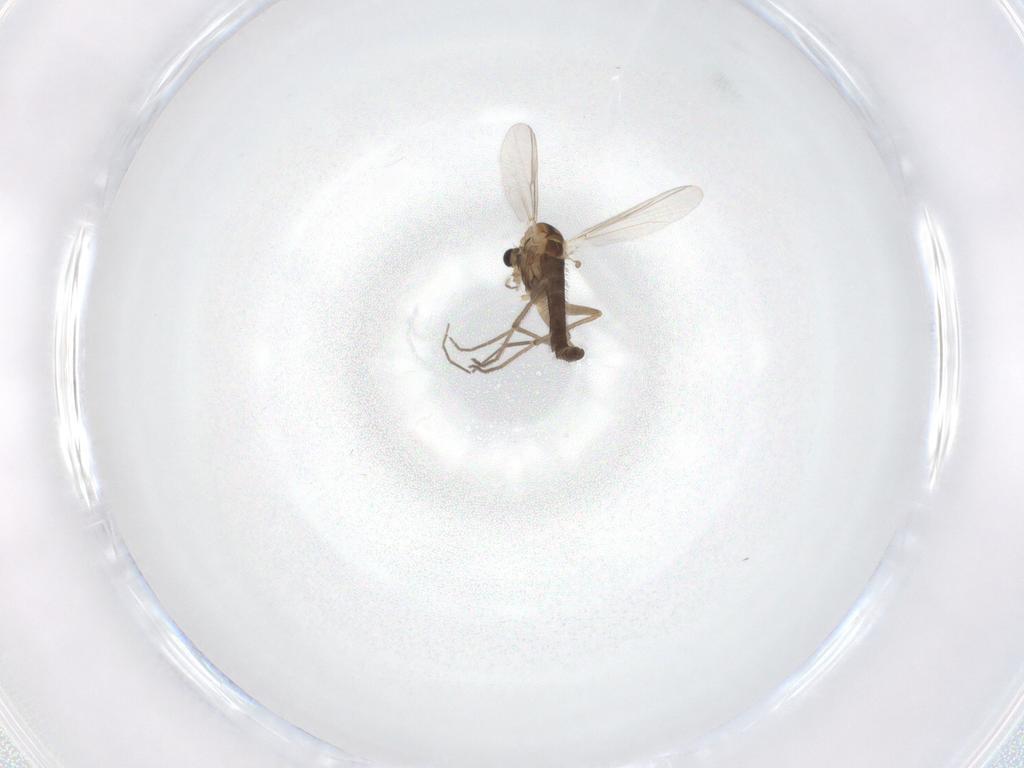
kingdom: Animalia
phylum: Arthropoda
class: Insecta
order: Diptera
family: Chironomidae
